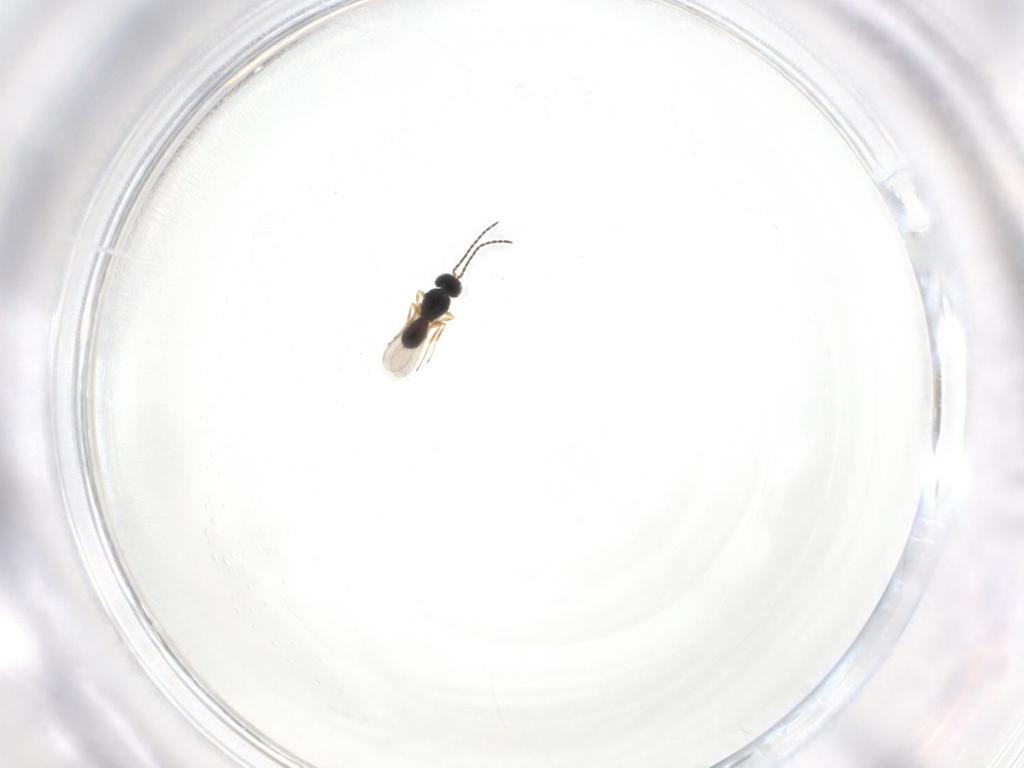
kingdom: Animalia
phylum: Arthropoda
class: Insecta
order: Hymenoptera
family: Scelionidae
